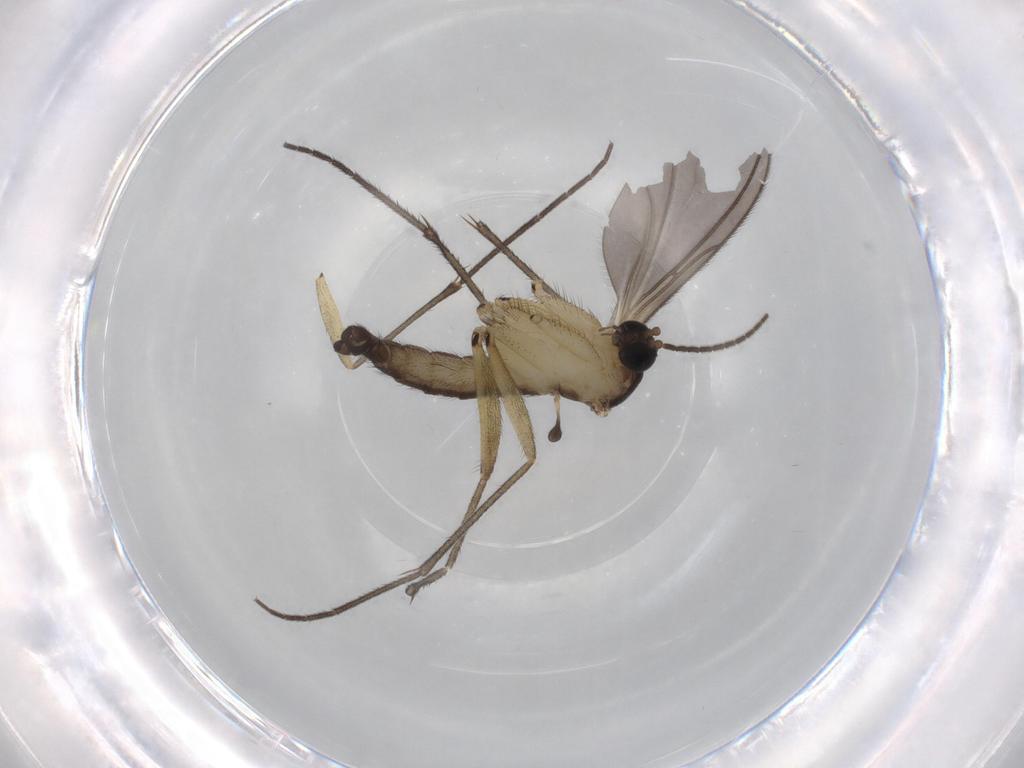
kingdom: Animalia
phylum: Arthropoda
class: Insecta
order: Diptera
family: Sciaridae
